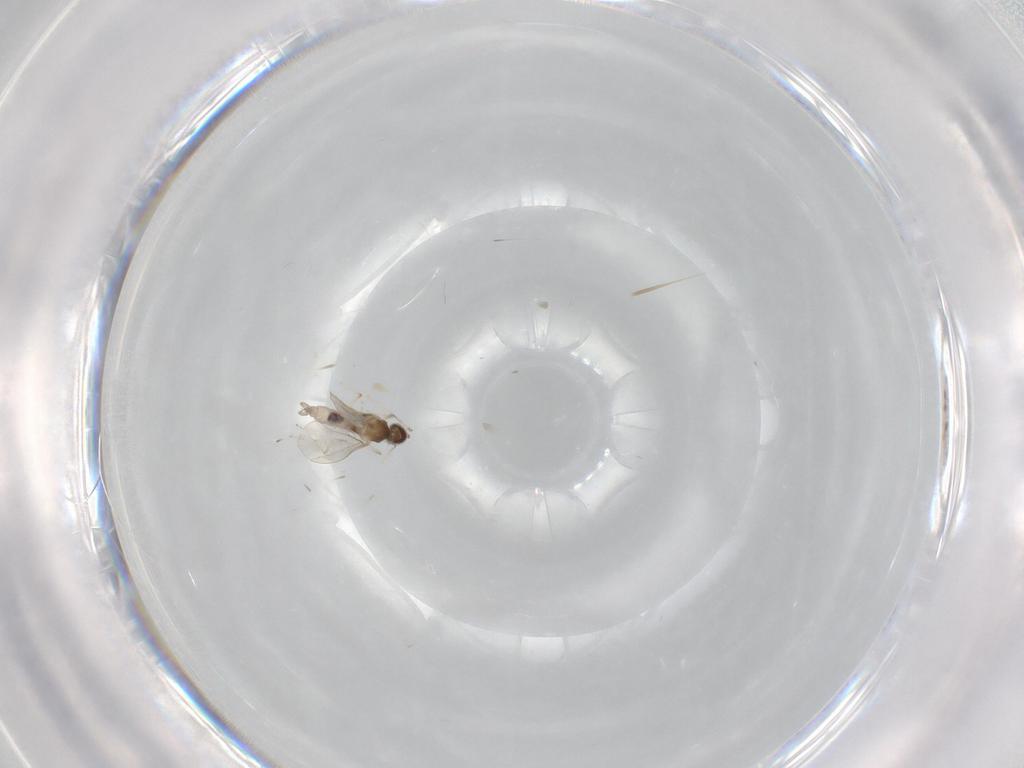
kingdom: Animalia
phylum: Arthropoda
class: Insecta
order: Diptera
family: Cecidomyiidae
